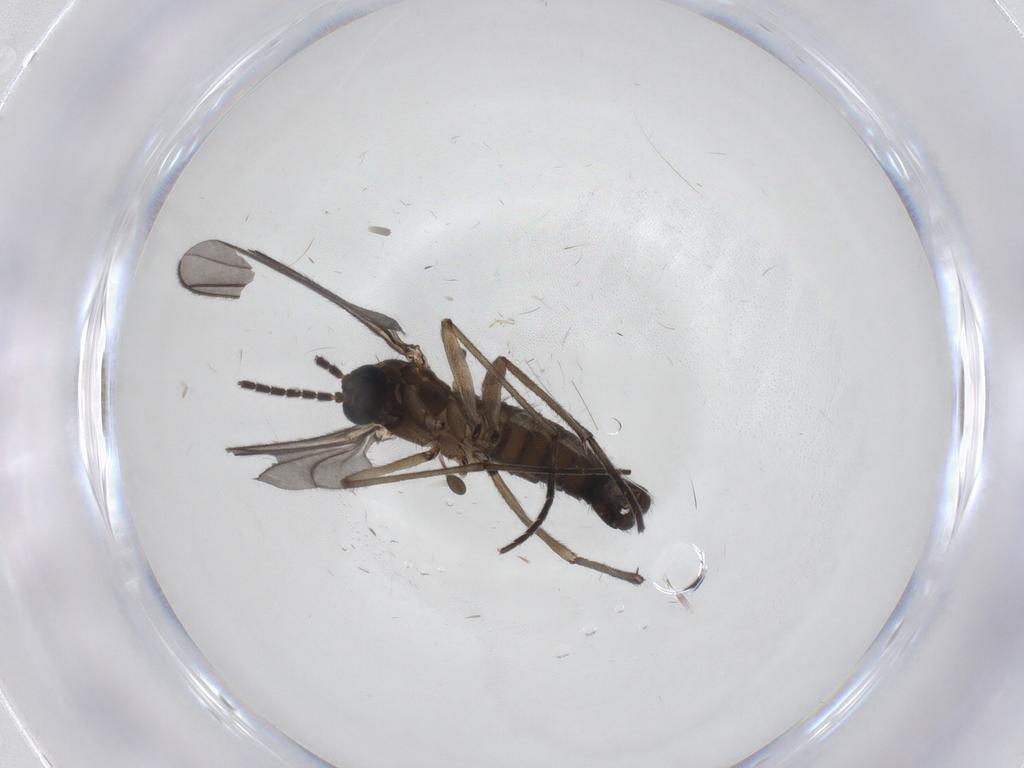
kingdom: Animalia
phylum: Arthropoda
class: Insecta
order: Diptera
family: Sciaridae
